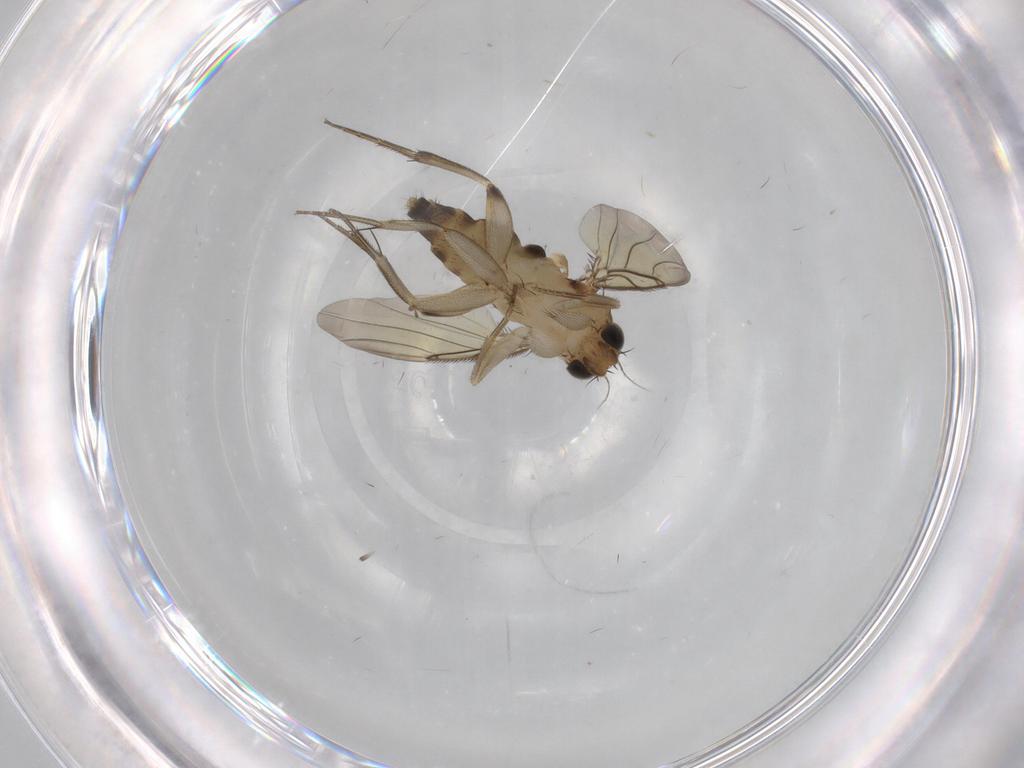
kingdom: Animalia
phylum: Arthropoda
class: Insecta
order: Diptera
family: Phoridae
